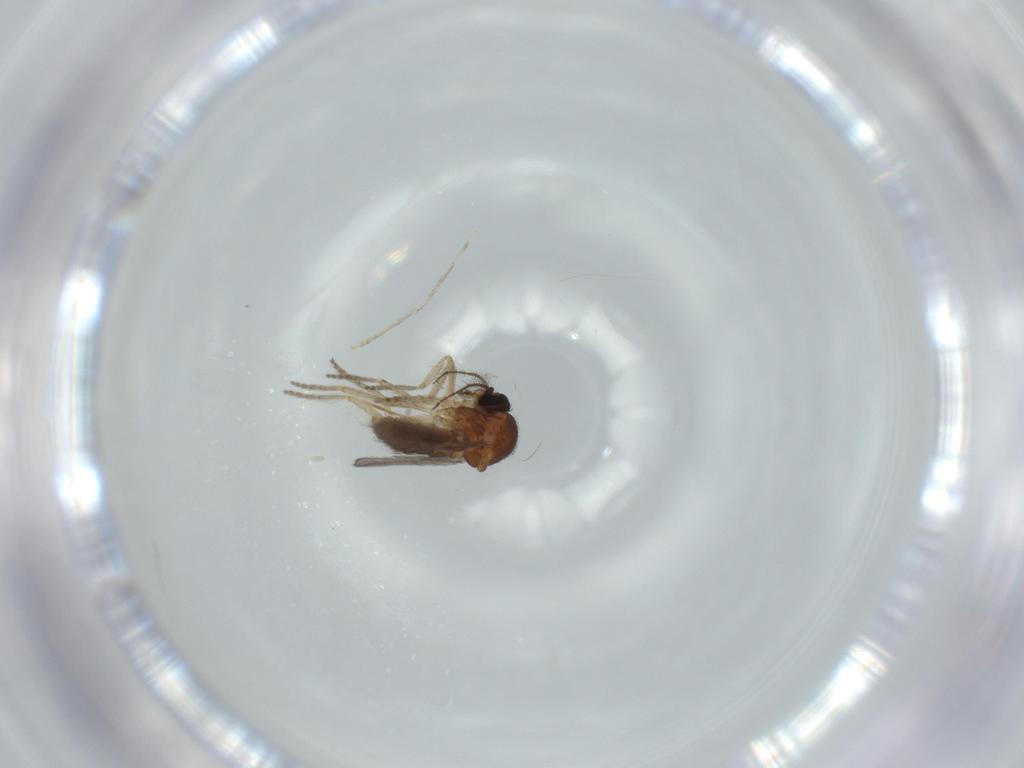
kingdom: Animalia
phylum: Arthropoda
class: Insecta
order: Diptera
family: Ceratopogonidae
